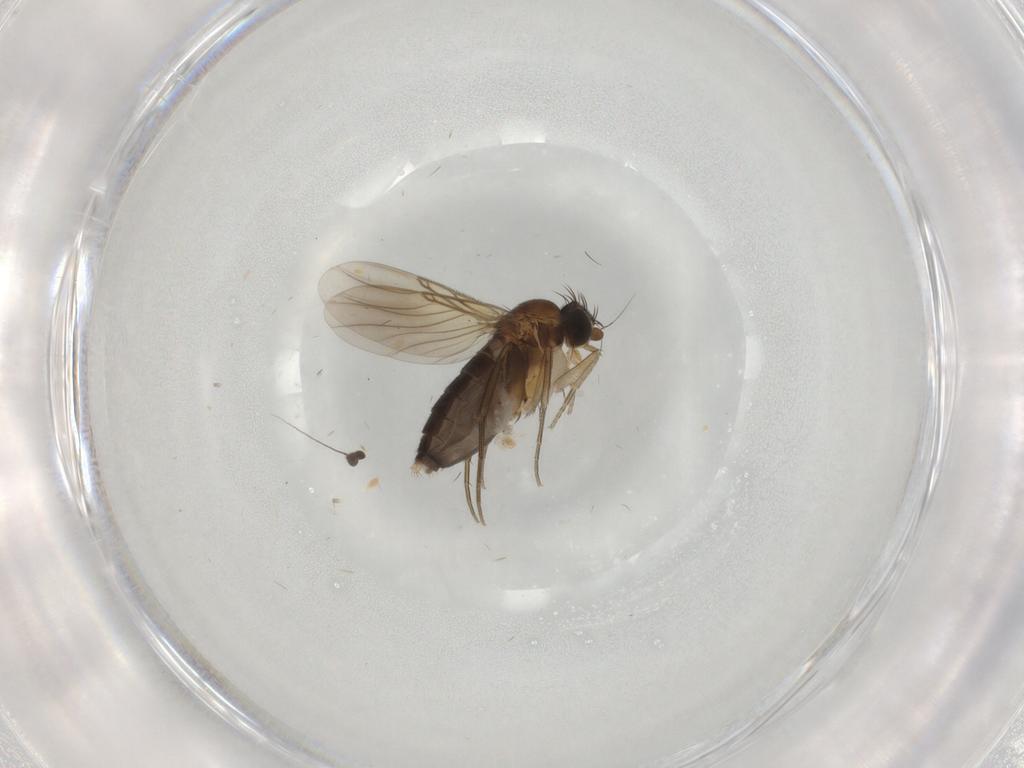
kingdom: Animalia
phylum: Arthropoda
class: Insecta
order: Diptera
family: Phoridae
